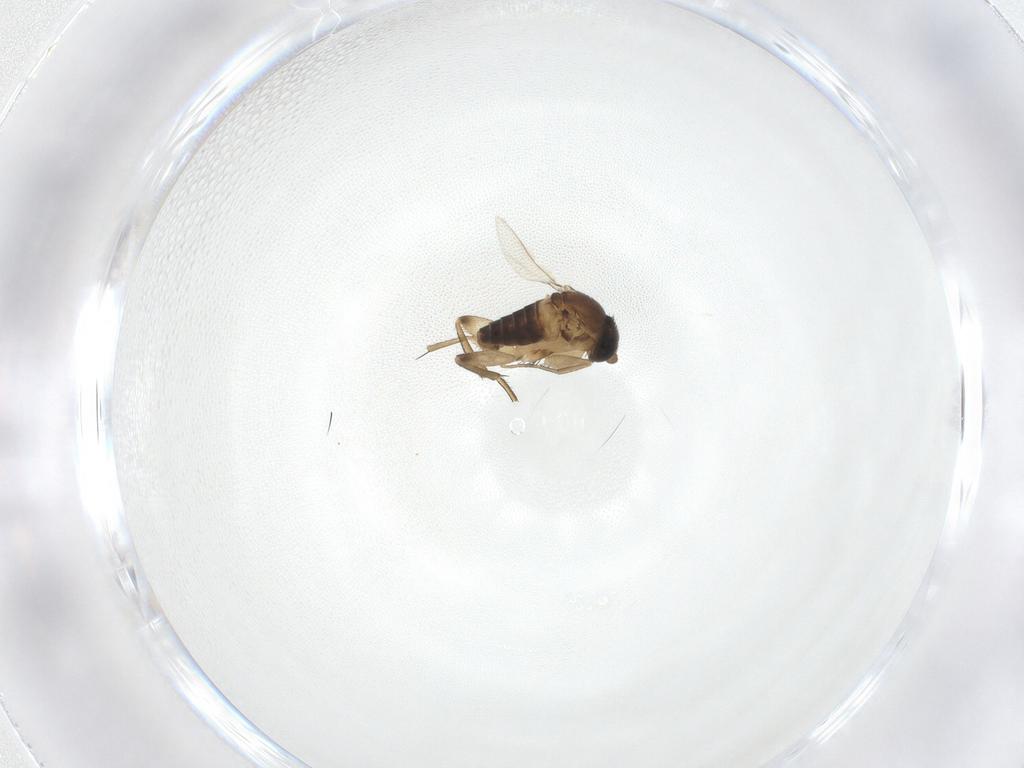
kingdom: Animalia
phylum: Arthropoda
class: Insecta
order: Diptera
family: Phoridae
